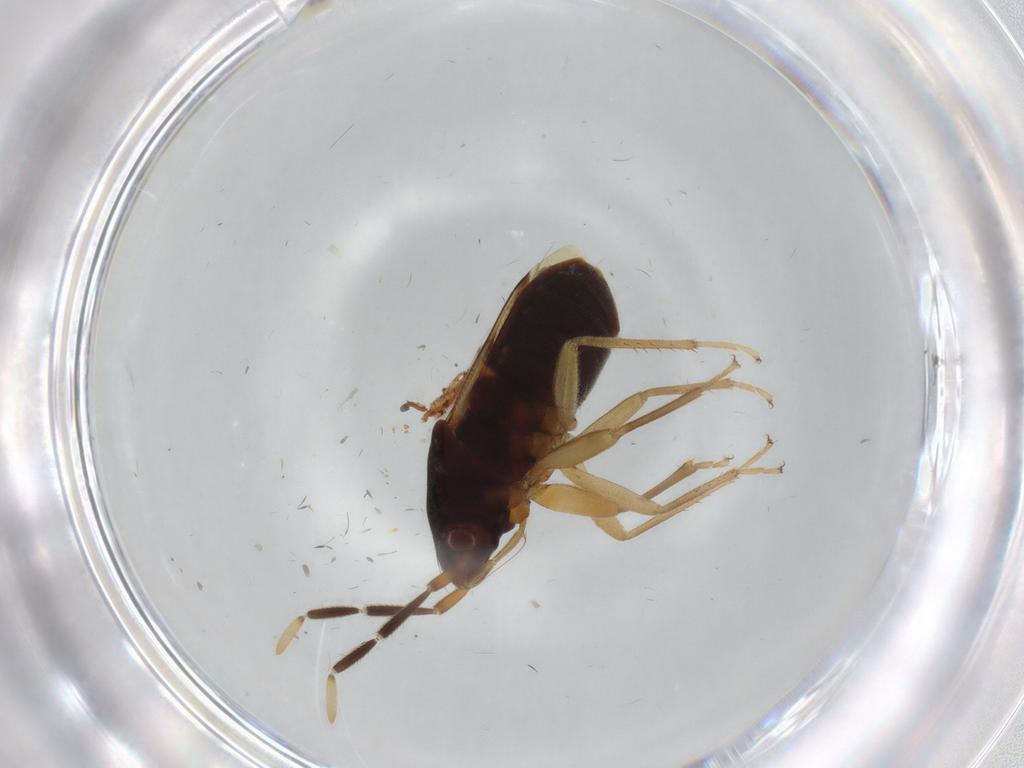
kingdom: Animalia
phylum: Arthropoda
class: Insecta
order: Hemiptera
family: Rhyparochromidae
